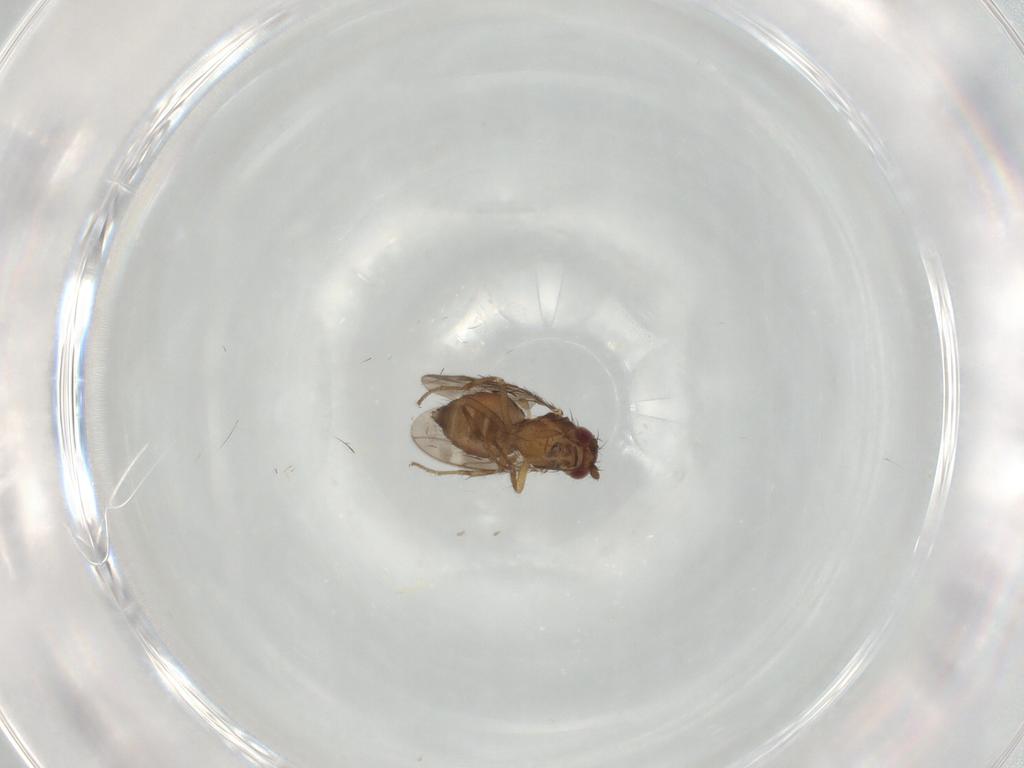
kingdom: Animalia
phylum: Arthropoda
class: Insecta
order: Diptera
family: Sphaeroceridae
